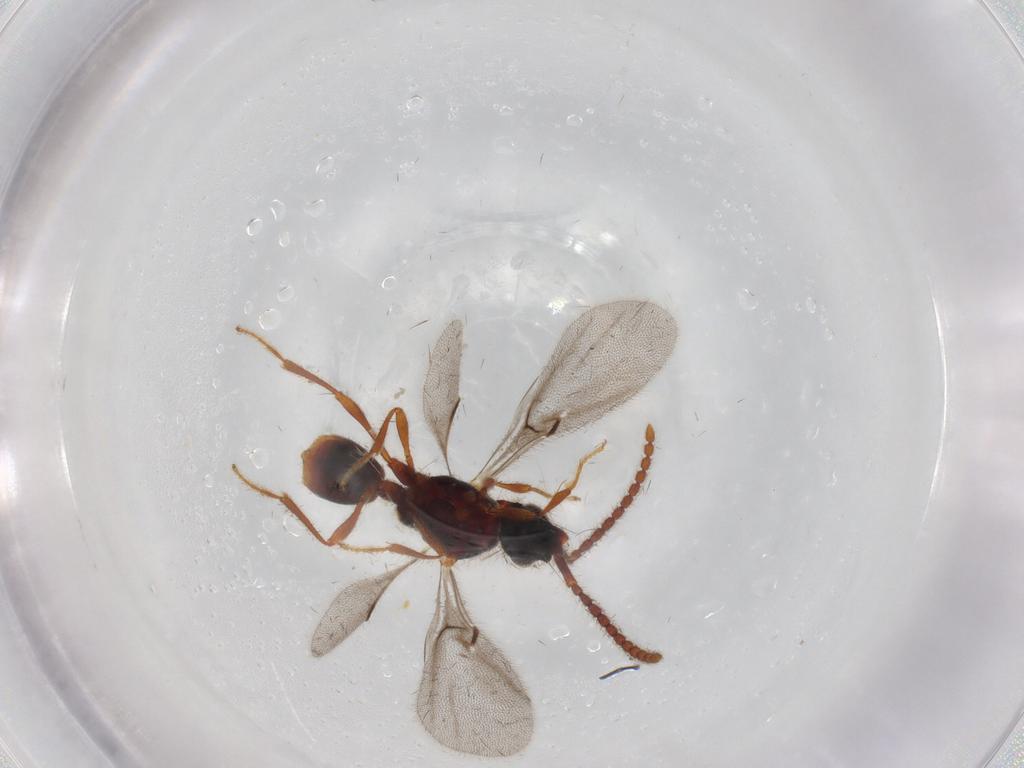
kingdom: Animalia
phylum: Arthropoda
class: Insecta
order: Hymenoptera
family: Diapriidae
